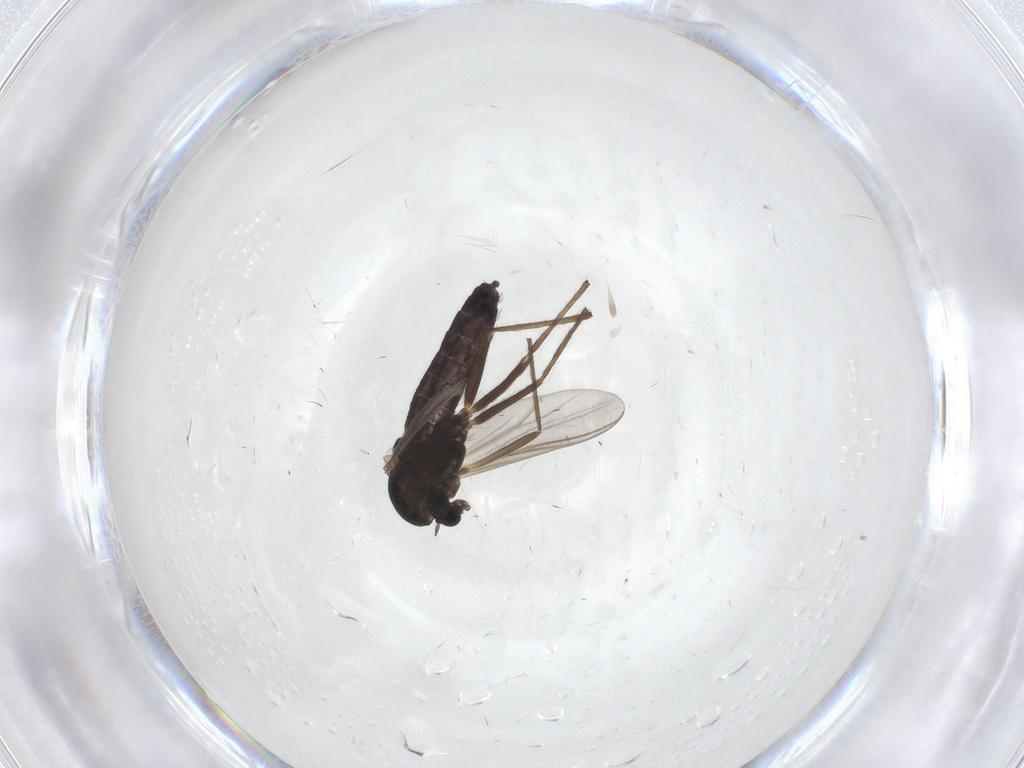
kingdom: Animalia
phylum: Arthropoda
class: Insecta
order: Diptera
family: Chironomidae
